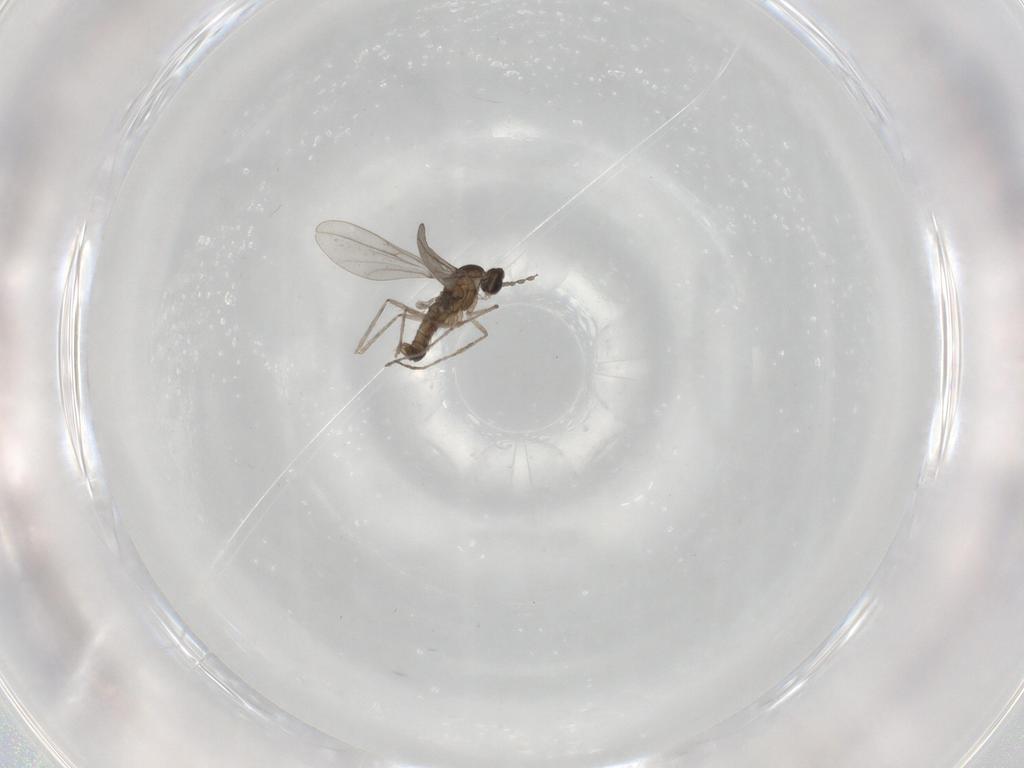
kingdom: Animalia
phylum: Arthropoda
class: Insecta
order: Diptera
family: Cecidomyiidae
